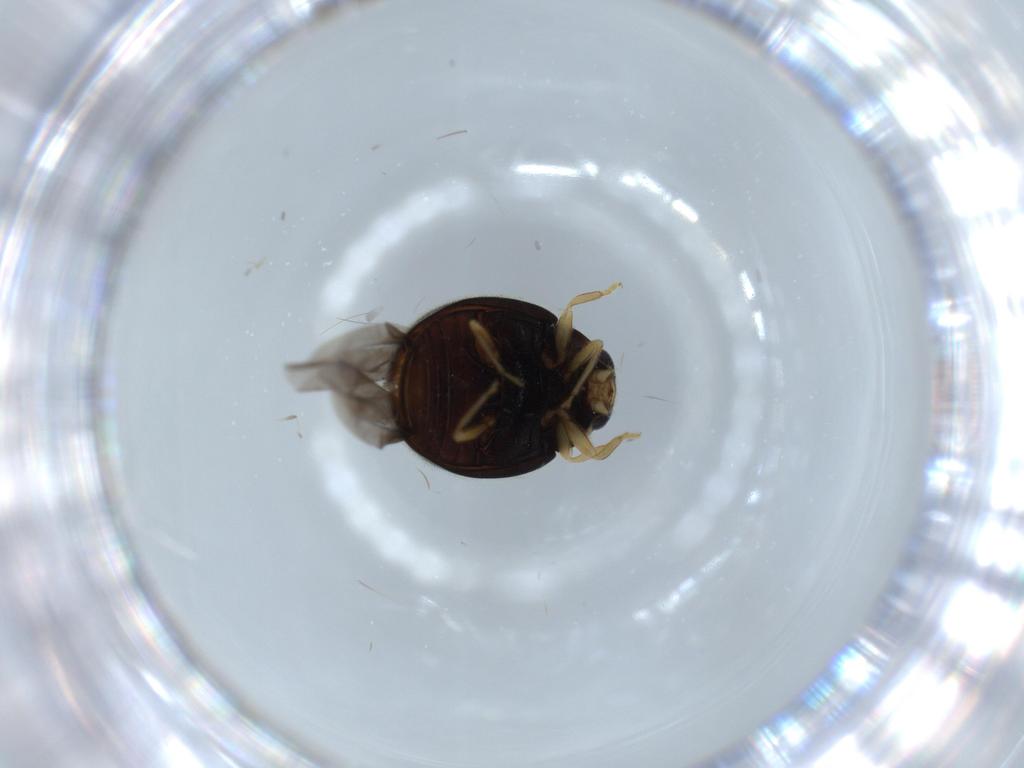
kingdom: Animalia
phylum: Arthropoda
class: Insecta
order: Coleoptera
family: Coccinellidae
